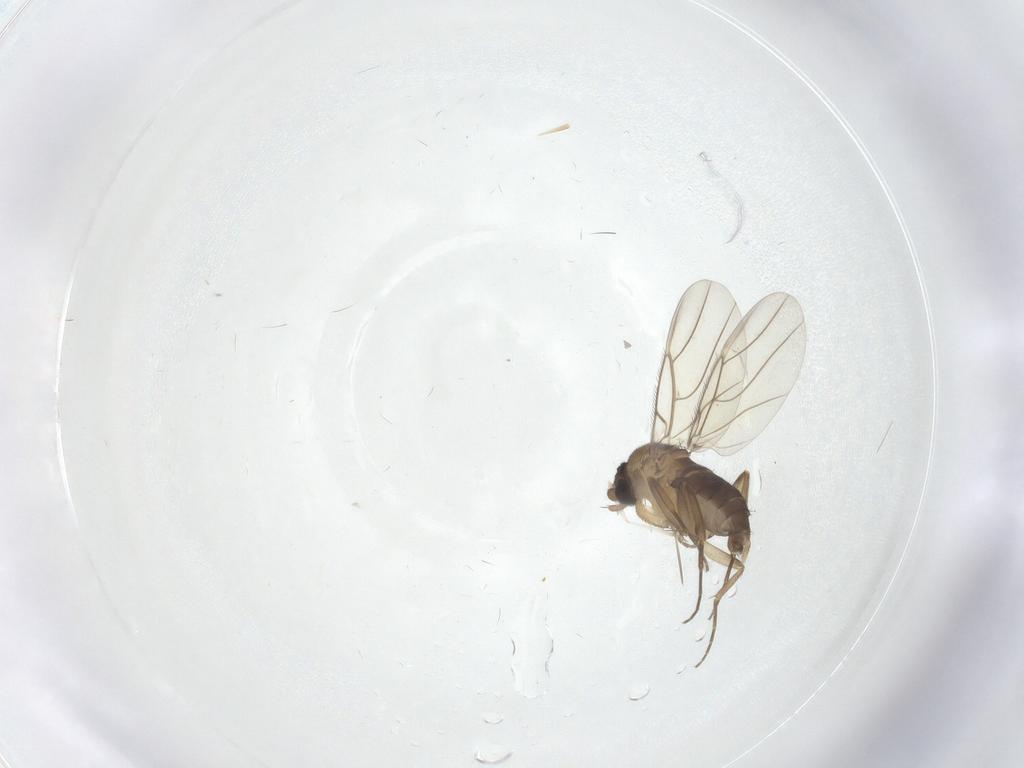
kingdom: Animalia
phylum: Arthropoda
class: Insecta
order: Diptera
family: Phoridae
